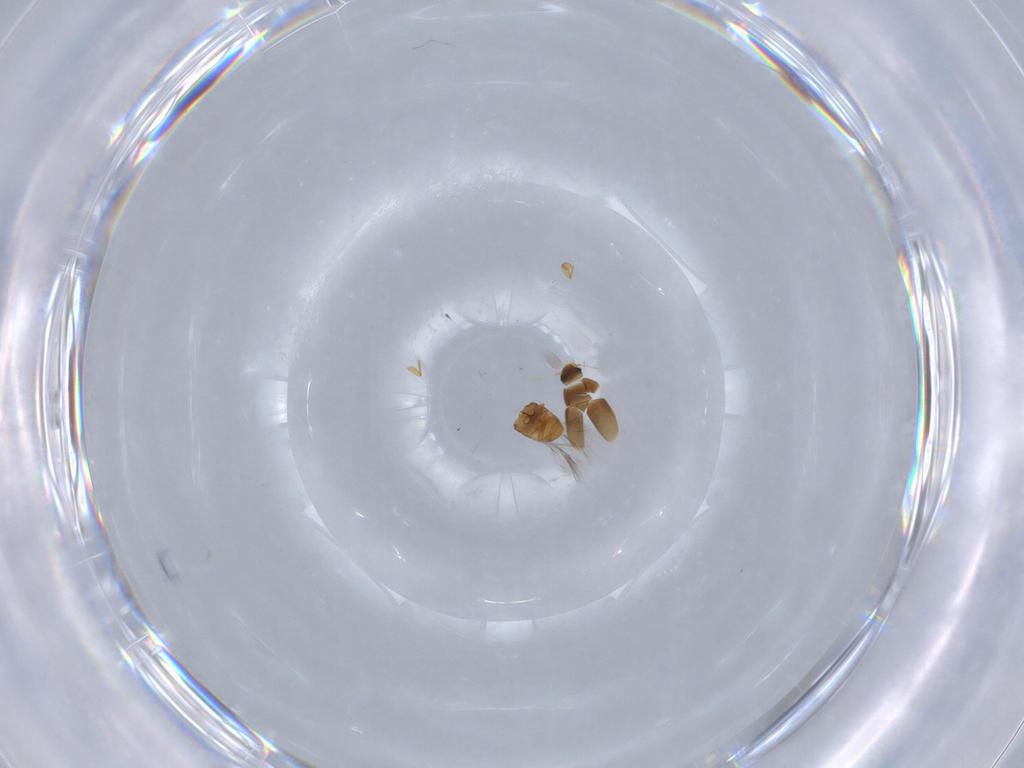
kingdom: Animalia
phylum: Arthropoda
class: Insecta
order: Coleoptera
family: Ptiliidae
